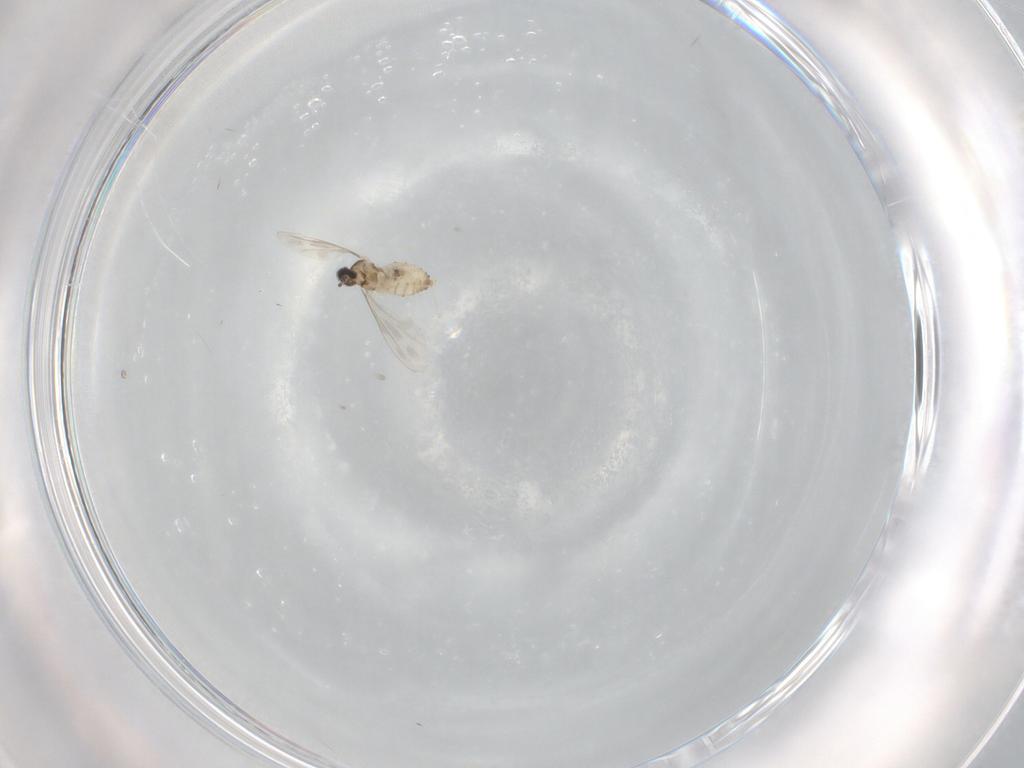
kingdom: Animalia
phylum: Arthropoda
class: Insecta
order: Diptera
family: Cecidomyiidae
